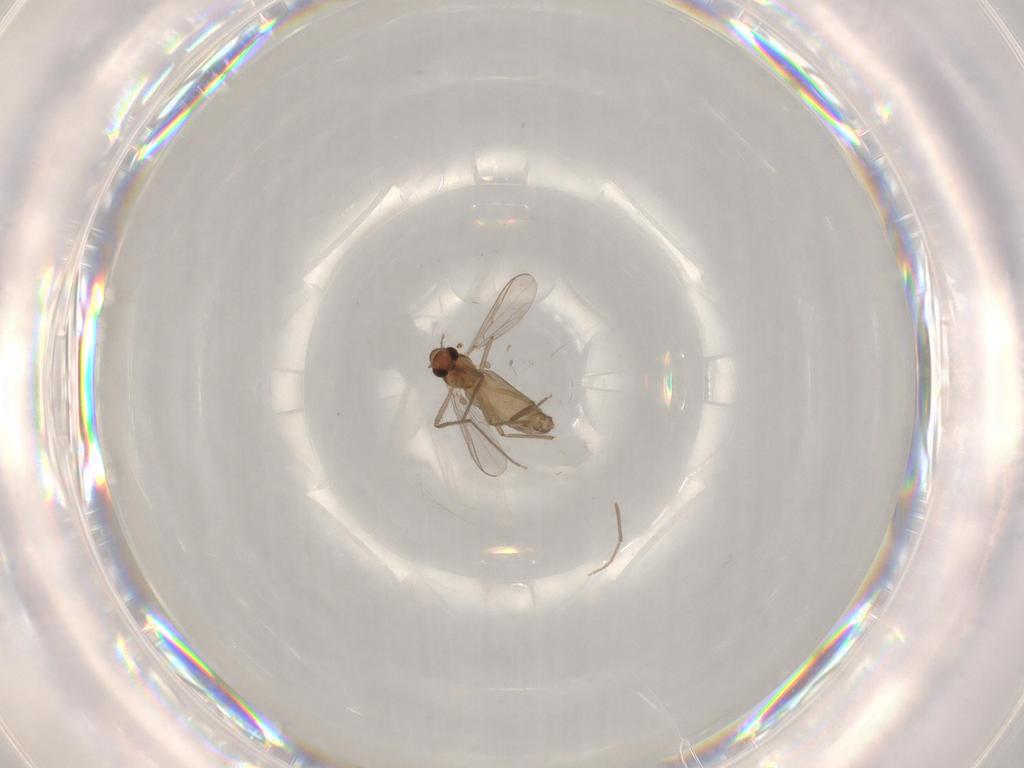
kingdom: Animalia
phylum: Arthropoda
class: Insecta
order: Diptera
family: Chironomidae
